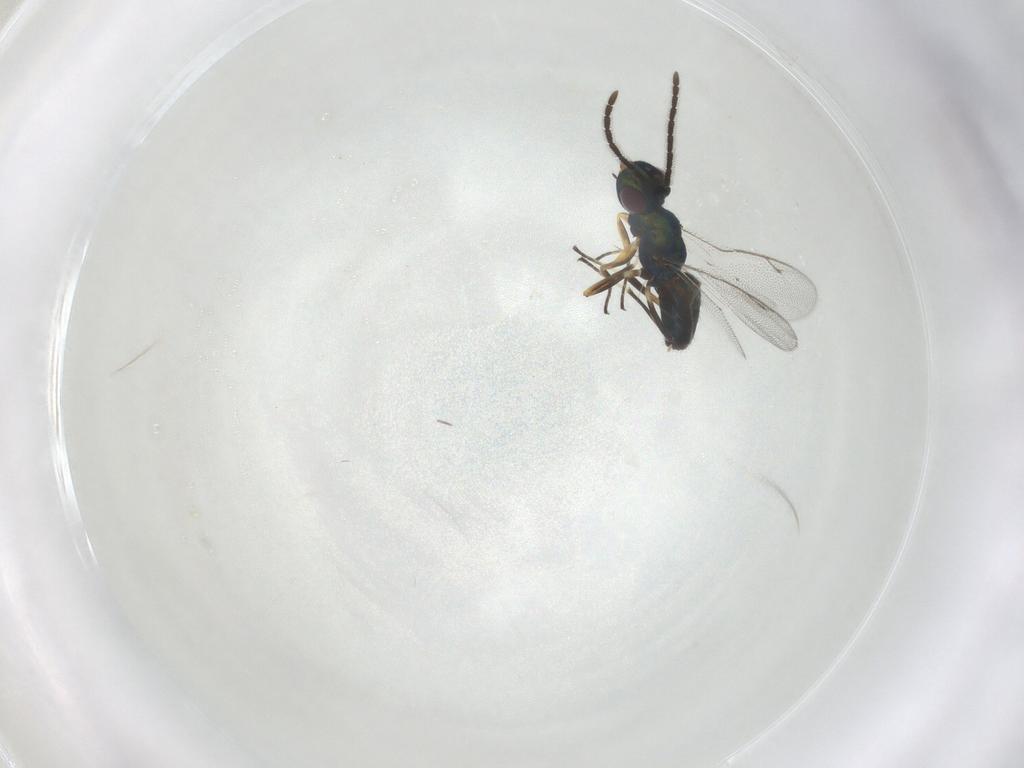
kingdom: Animalia
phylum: Arthropoda
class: Insecta
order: Hymenoptera
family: Eupelmidae
